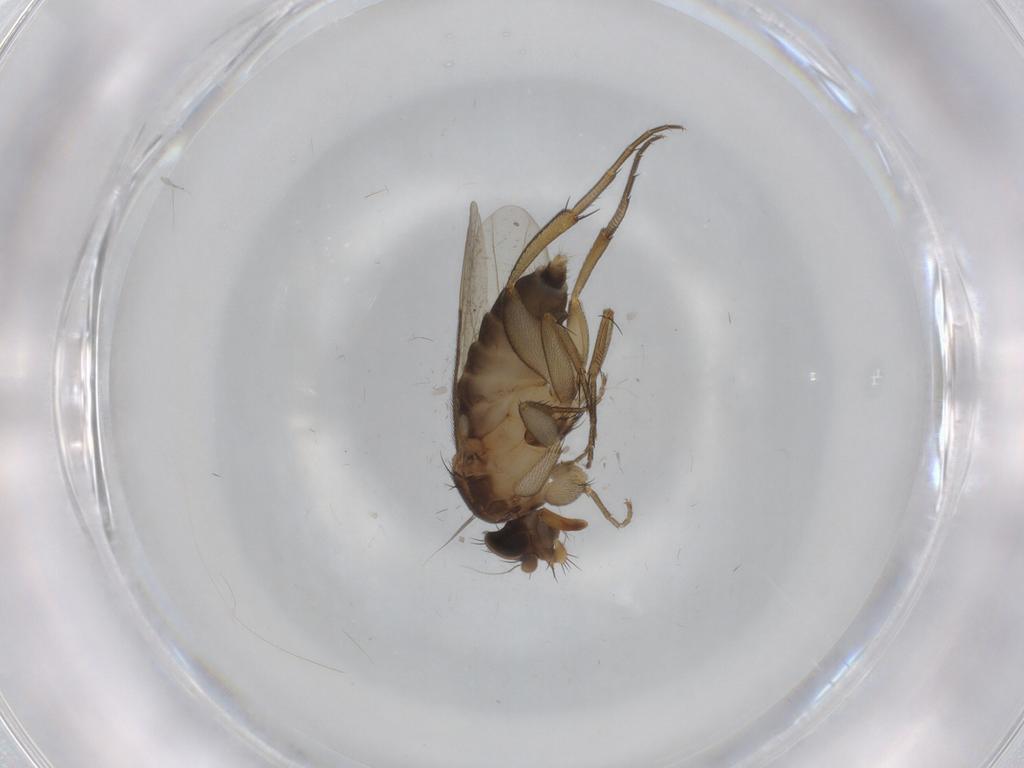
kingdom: Animalia
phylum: Arthropoda
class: Insecta
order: Diptera
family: Phoridae
